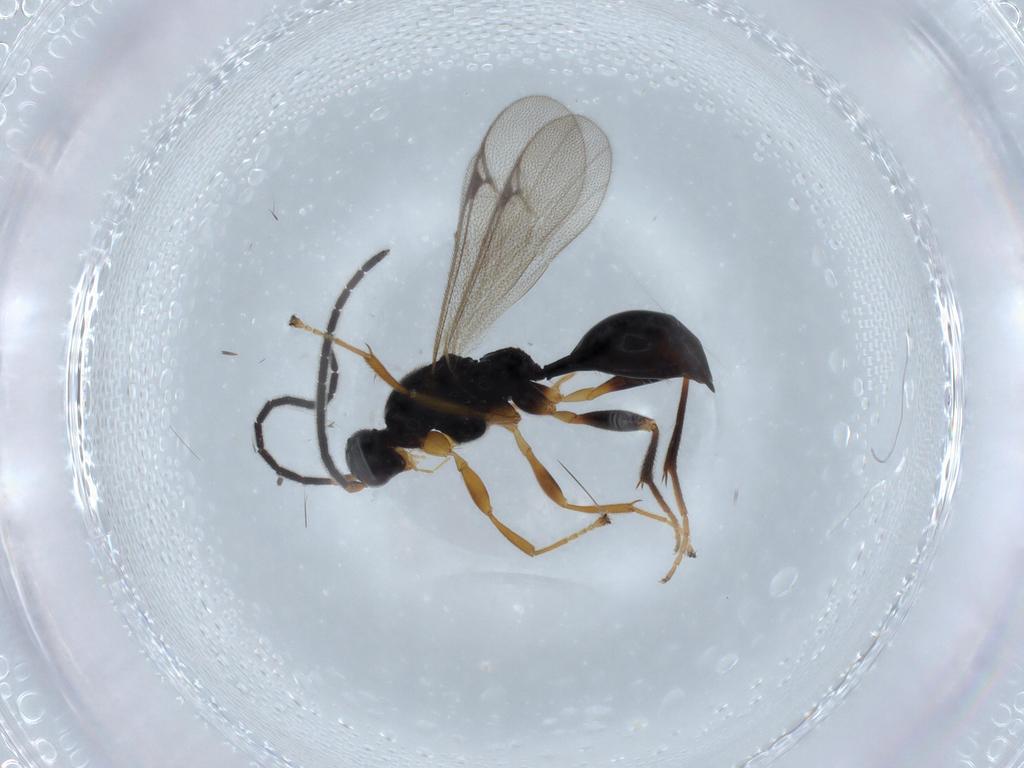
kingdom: Animalia
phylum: Arthropoda
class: Insecta
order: Hymenoptera
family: Proctotrupidae
